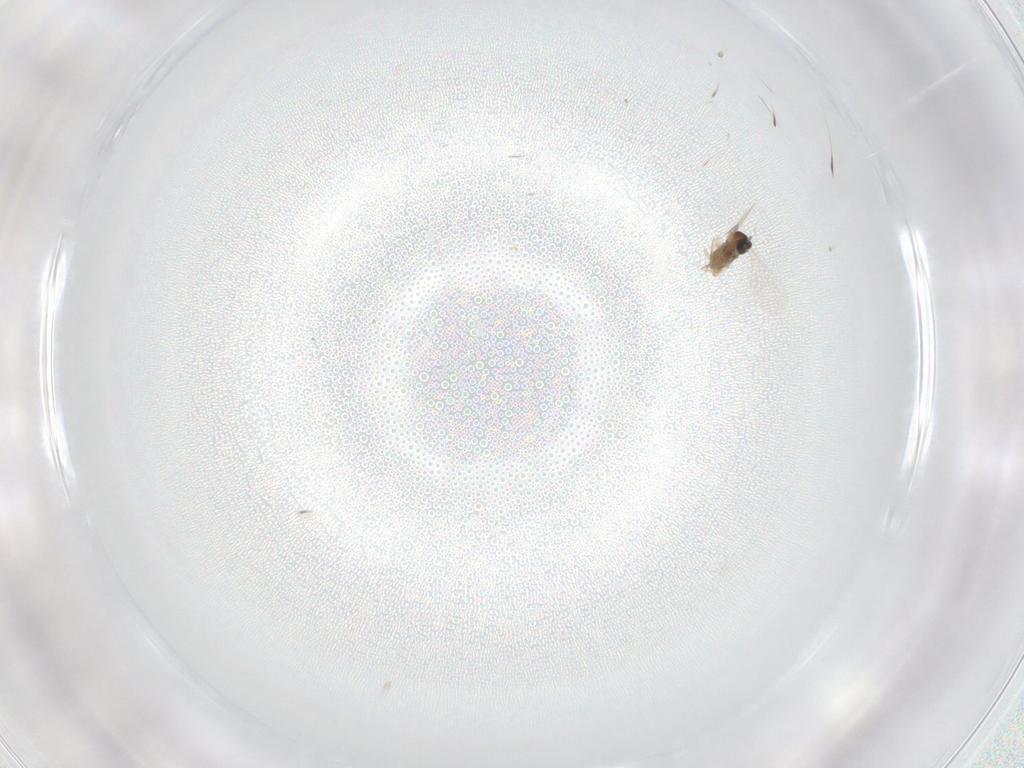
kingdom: Animalia
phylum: Arthropoda
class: Insecta
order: Diptera
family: Cecidomyiidae
